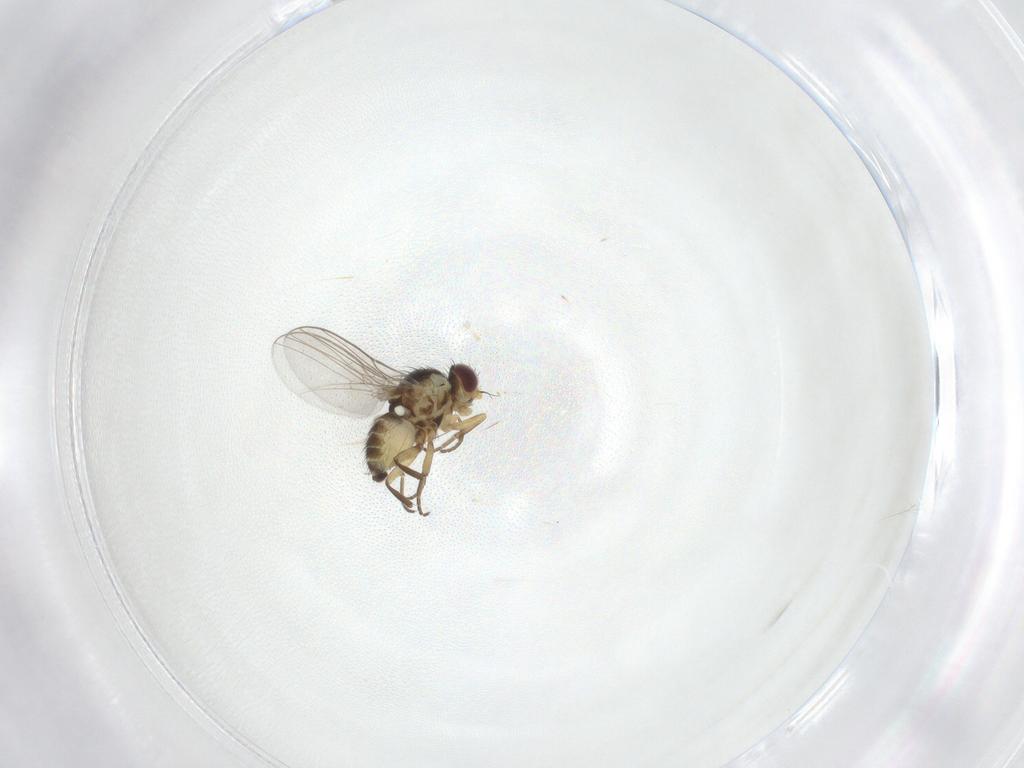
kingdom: Animalia
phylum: Arthropoda
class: Insecta
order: Diptera
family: Agromyzidae
